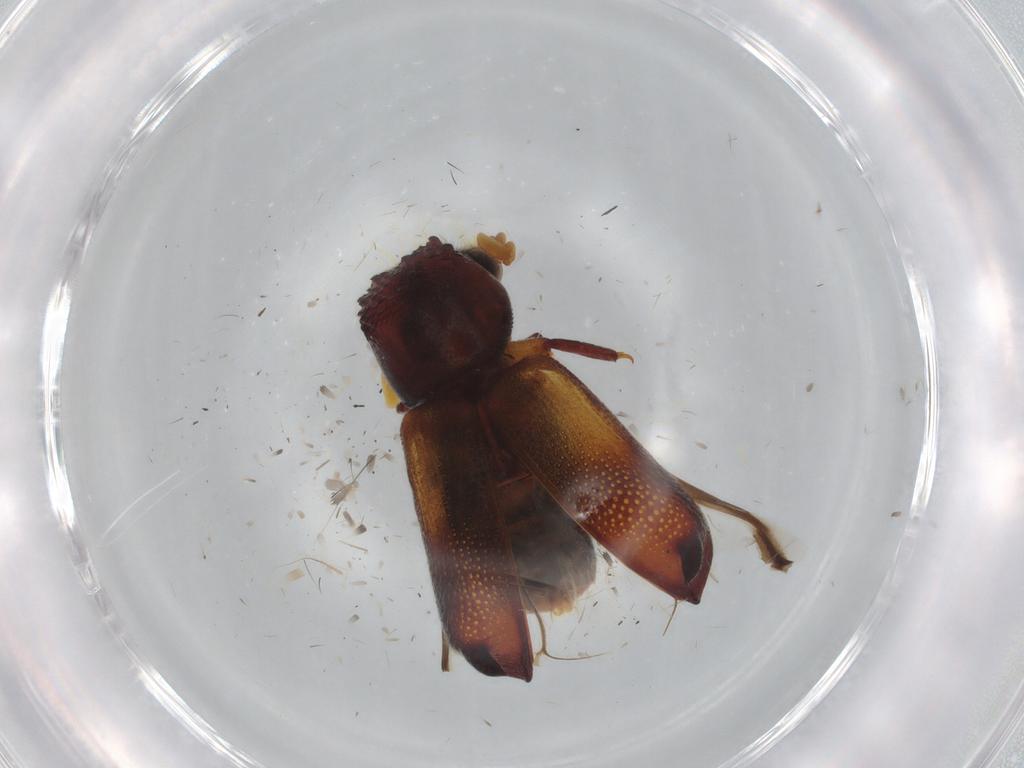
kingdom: Animalia
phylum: Arthropoda
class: Insecta
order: Coleoptera
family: Bostrichidae
